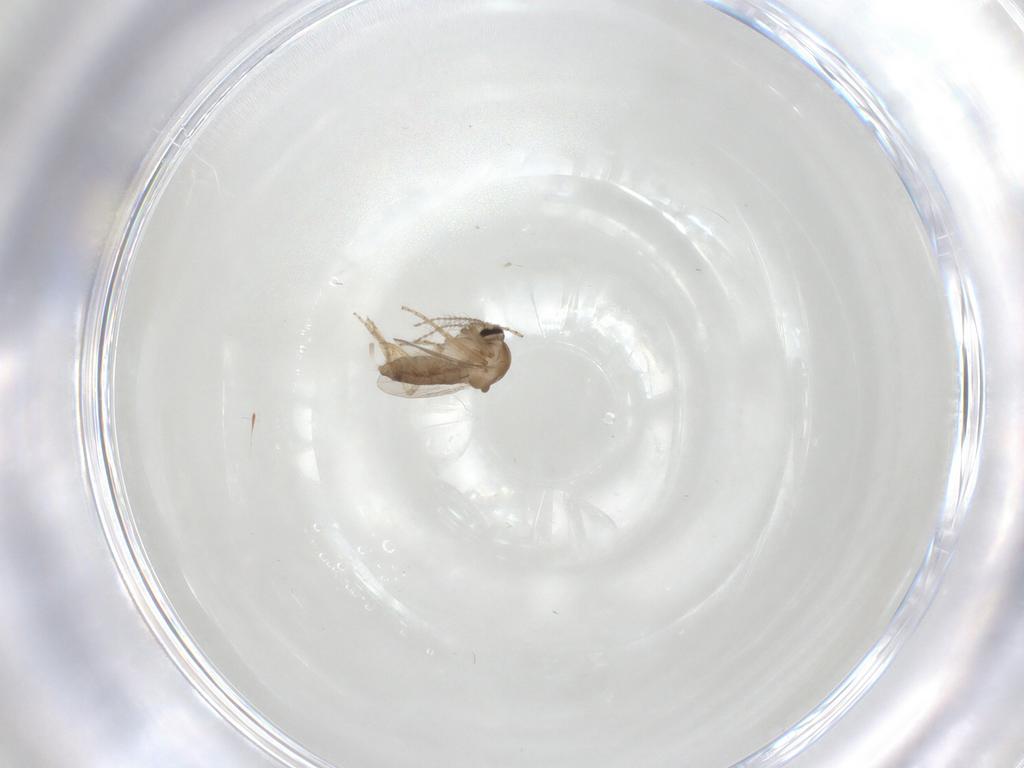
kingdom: Animalia
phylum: Arthropoda
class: Insecta
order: Diptera
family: Ceratopogonidae
